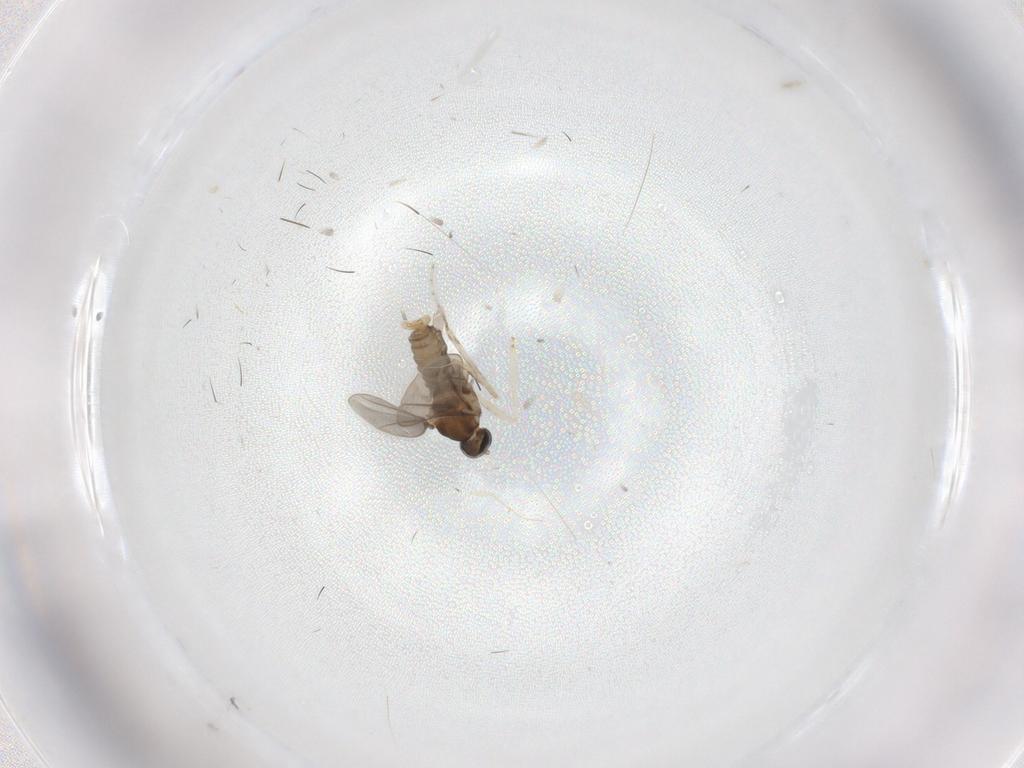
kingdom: Animalia
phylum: Arthropoda
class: Insecta
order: Diptera
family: Cecidomyiidae
